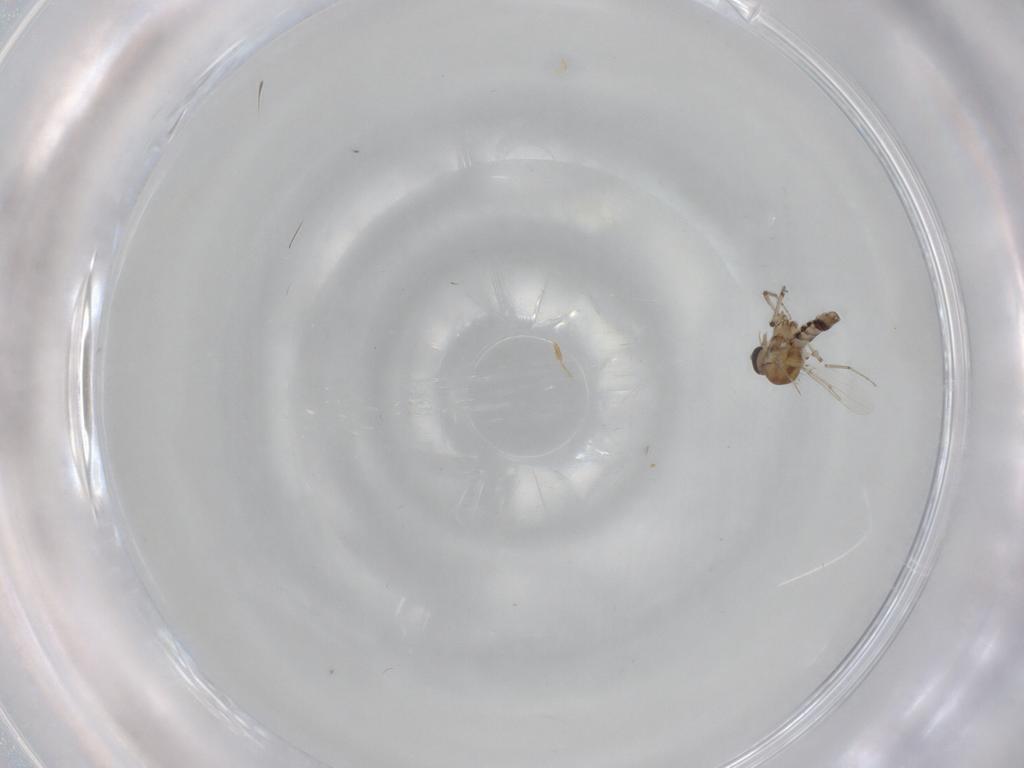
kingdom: Animalia
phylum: Arthropoda
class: Insecta
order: Diptera
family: Ceratopogonidae
